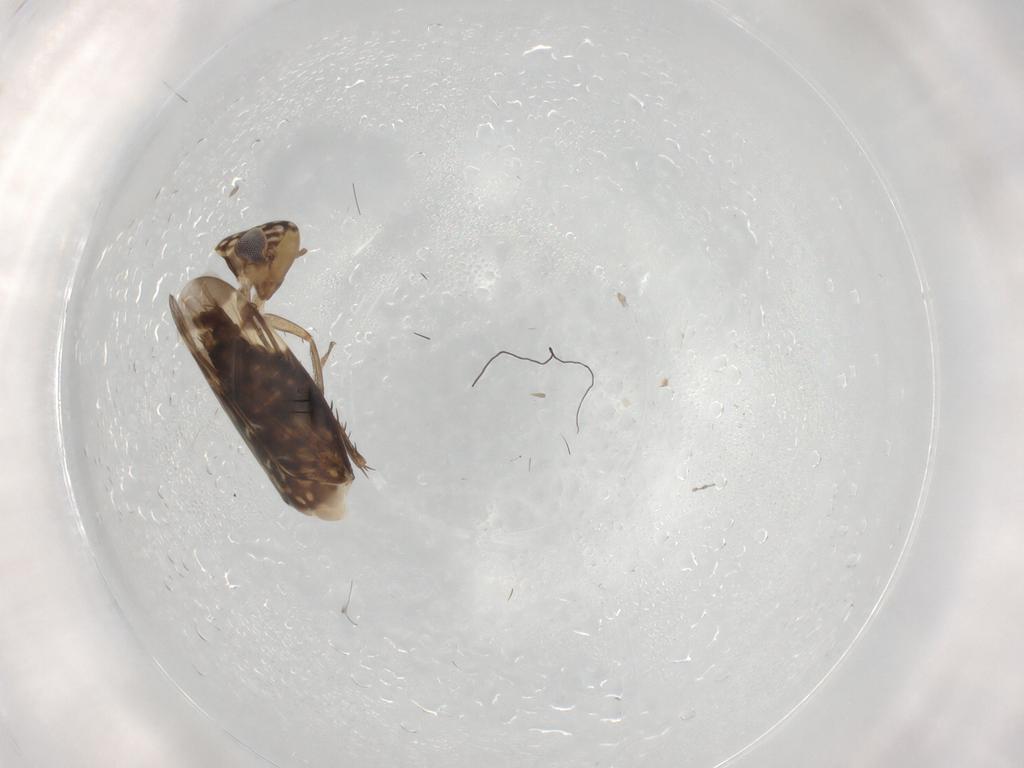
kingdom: Animalia
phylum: Arthropoda
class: Insecta
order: Hemiptera
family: Cicadellidae
